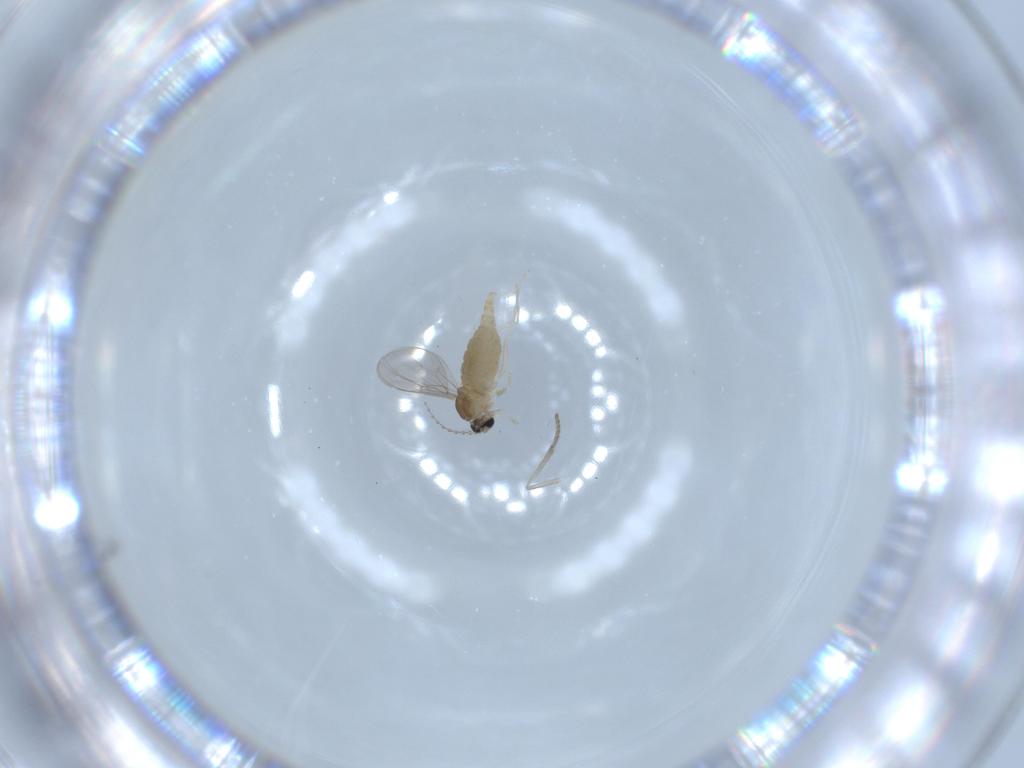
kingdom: Animalia
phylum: Arthropoda
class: Insecta
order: Diptera
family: Cecidomyiidae
